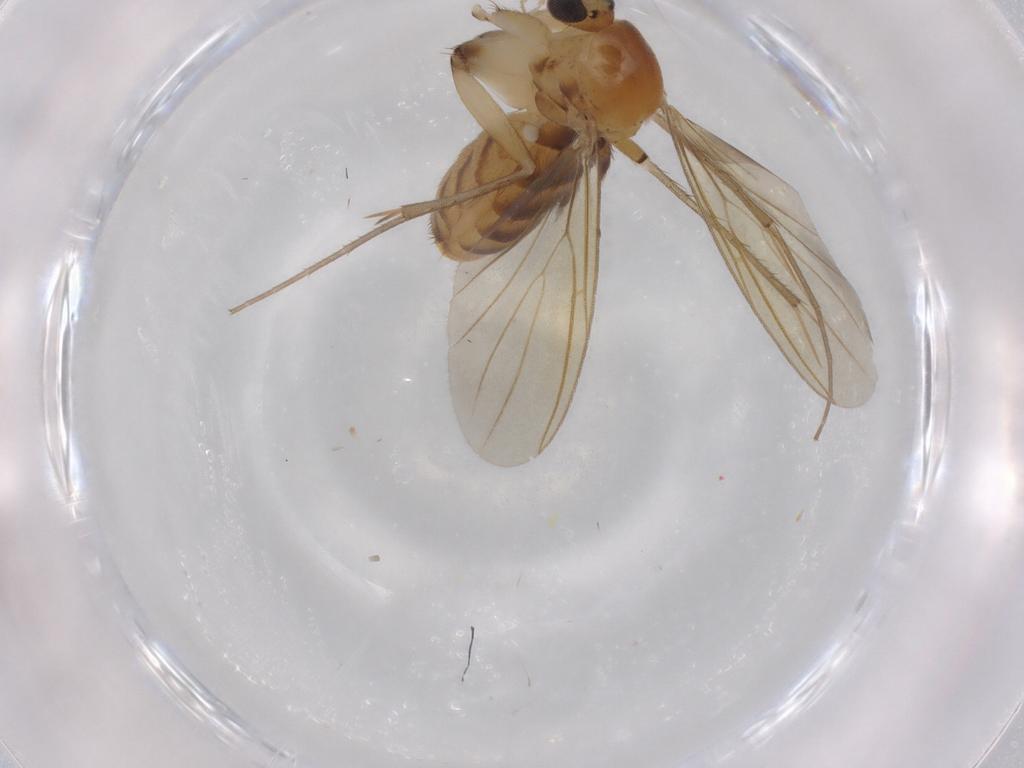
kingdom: Animalia
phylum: Arthropoda
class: Insecta
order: Diptera
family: Mycetophilidae
